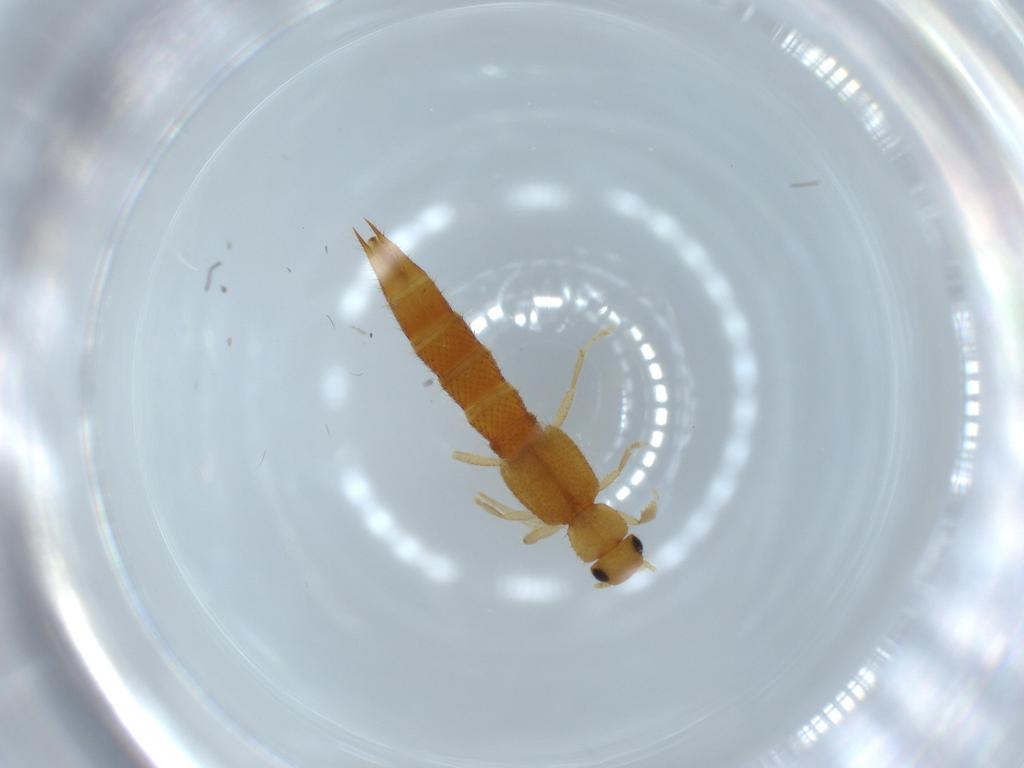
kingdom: Animalia
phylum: Arthropoda
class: Insecta
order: Coleoptera
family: Staphylinidae
